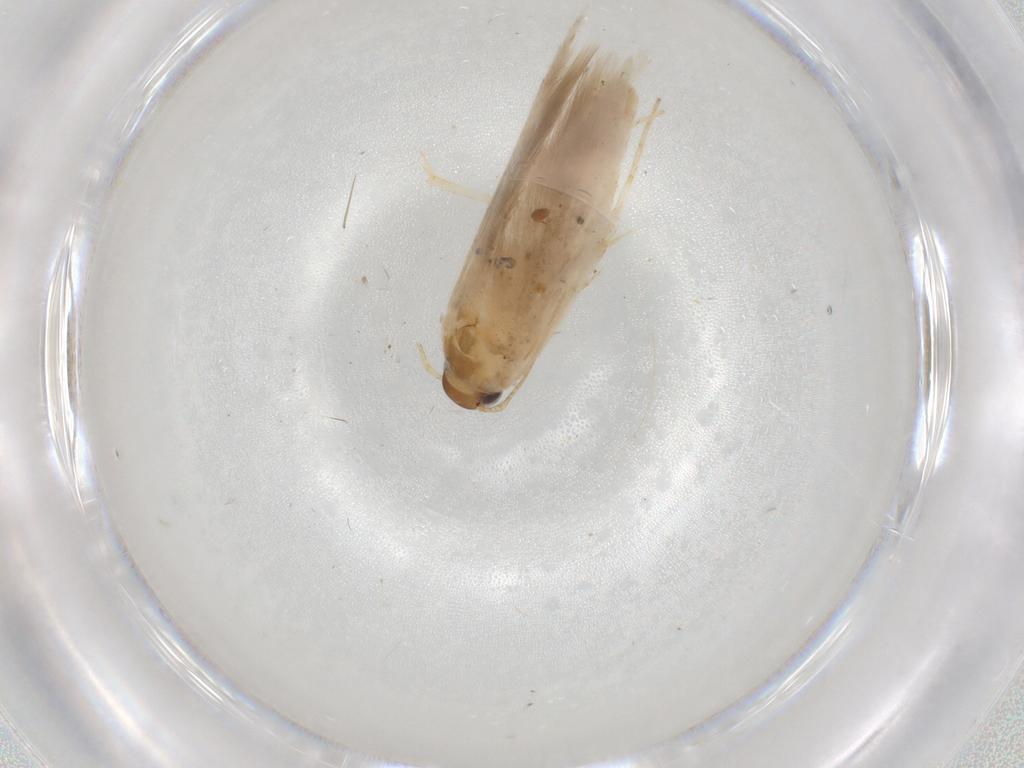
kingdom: Animalia
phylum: Arthropoda
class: Insecta
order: Lepidoptera
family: Gelechiidae
